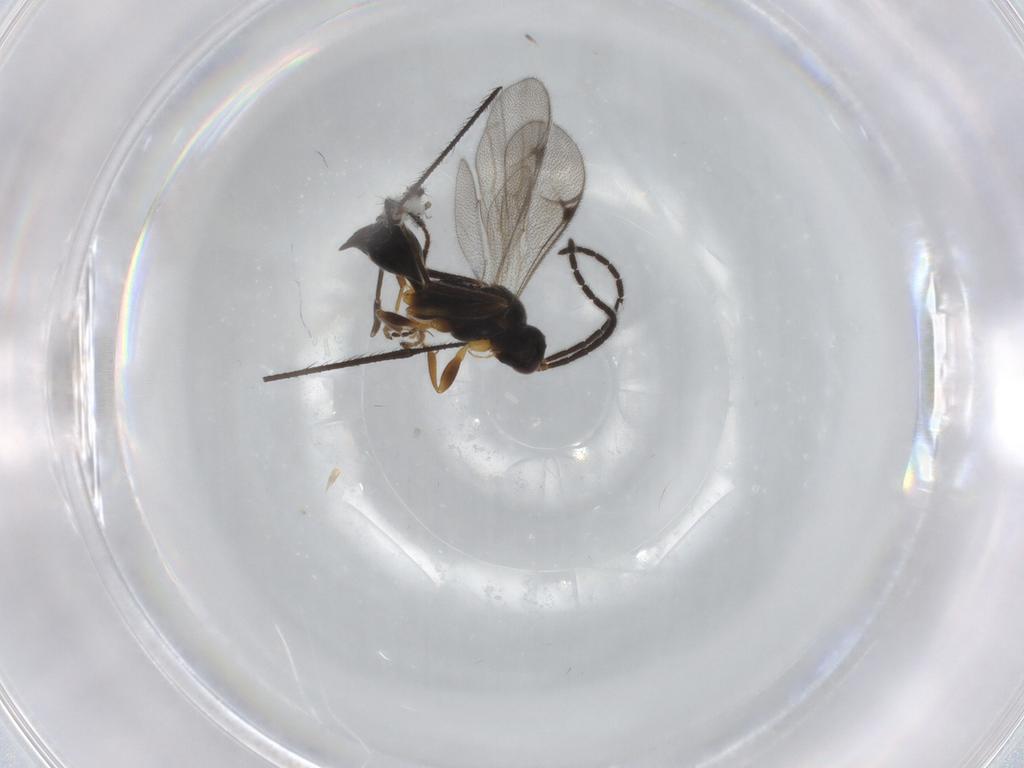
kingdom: Animalia
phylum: Arthropoda
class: Insecta
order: Hymenoptera
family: Proctotrupidae
